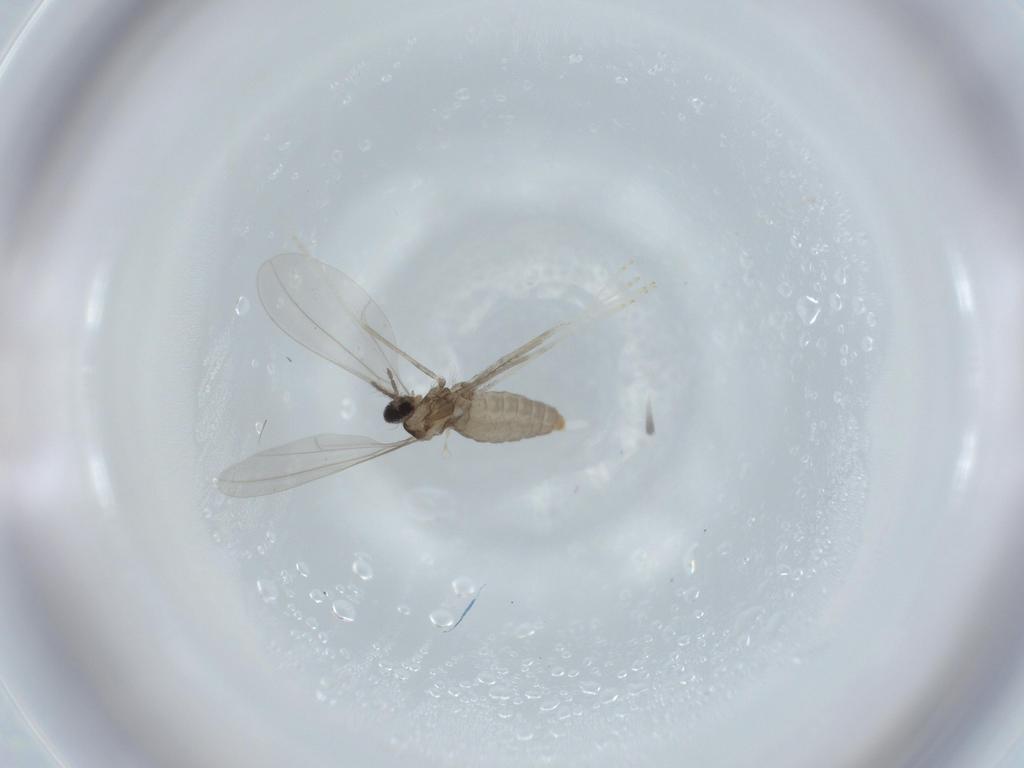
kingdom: Animalia
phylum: Arthropoda
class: Insecta
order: Diptera
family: Cecidomyiidae
